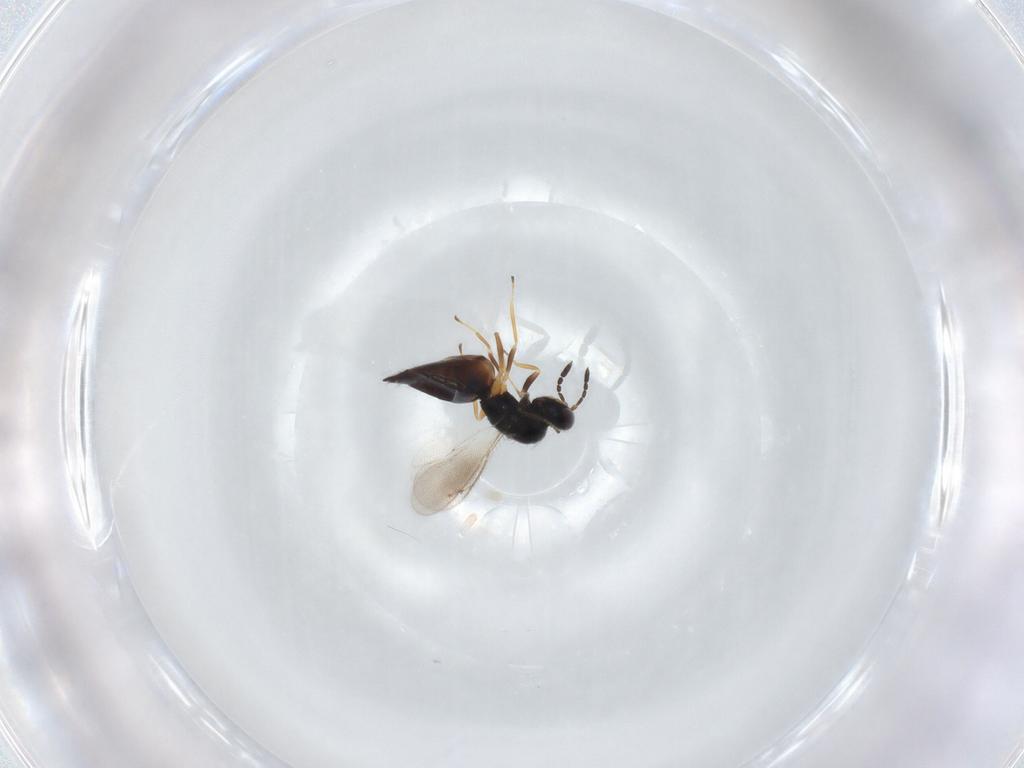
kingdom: Animalia
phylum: Arthropoda
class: Insecta
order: Hymenoptera
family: Eulophidae
